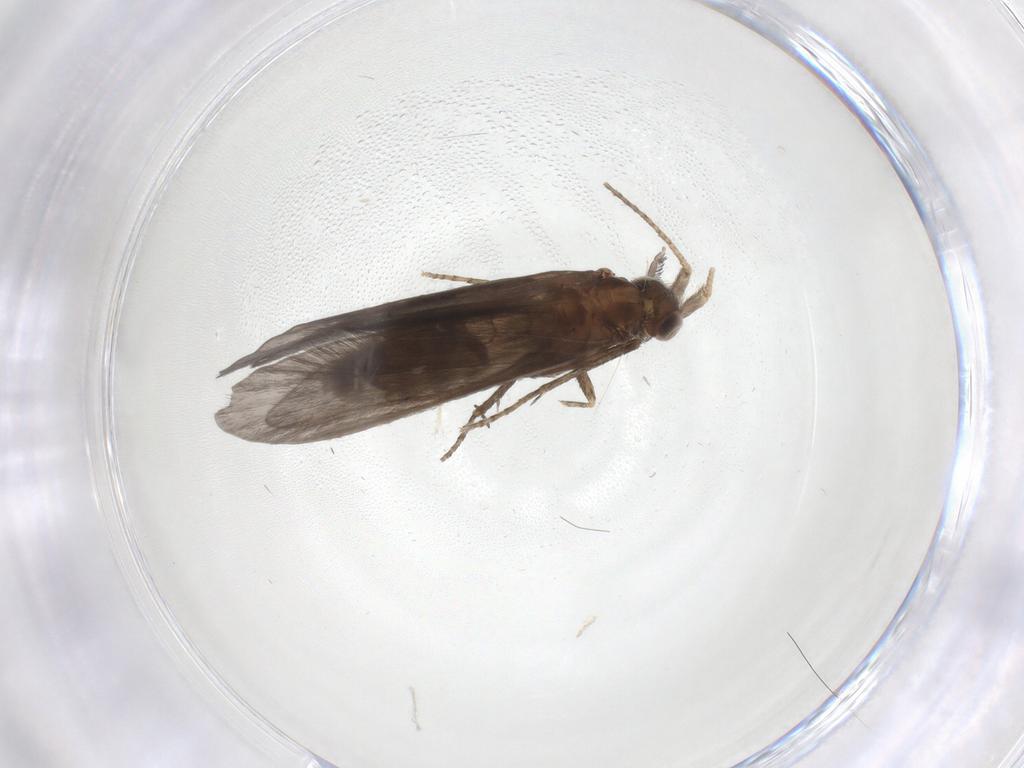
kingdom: Animalia
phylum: Arthropoda
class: Insecta
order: Trichoptera
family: Helicopsychidae
